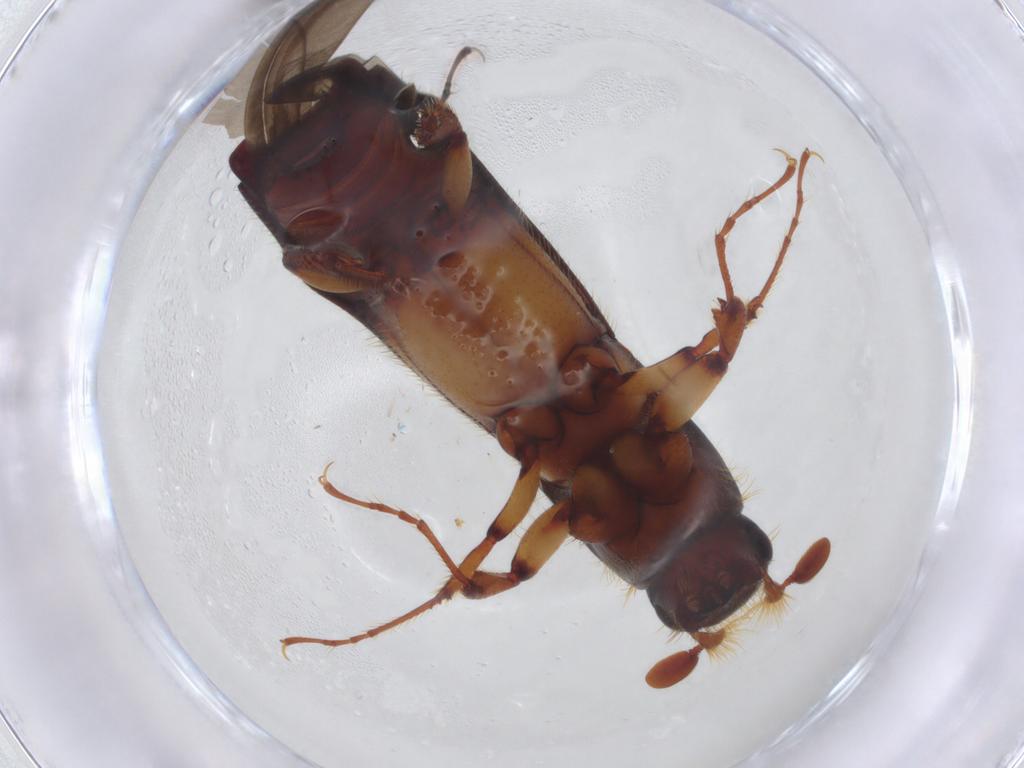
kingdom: Animalia
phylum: Arthropoda
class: Insecta
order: Coleoptera
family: Curculionidae
